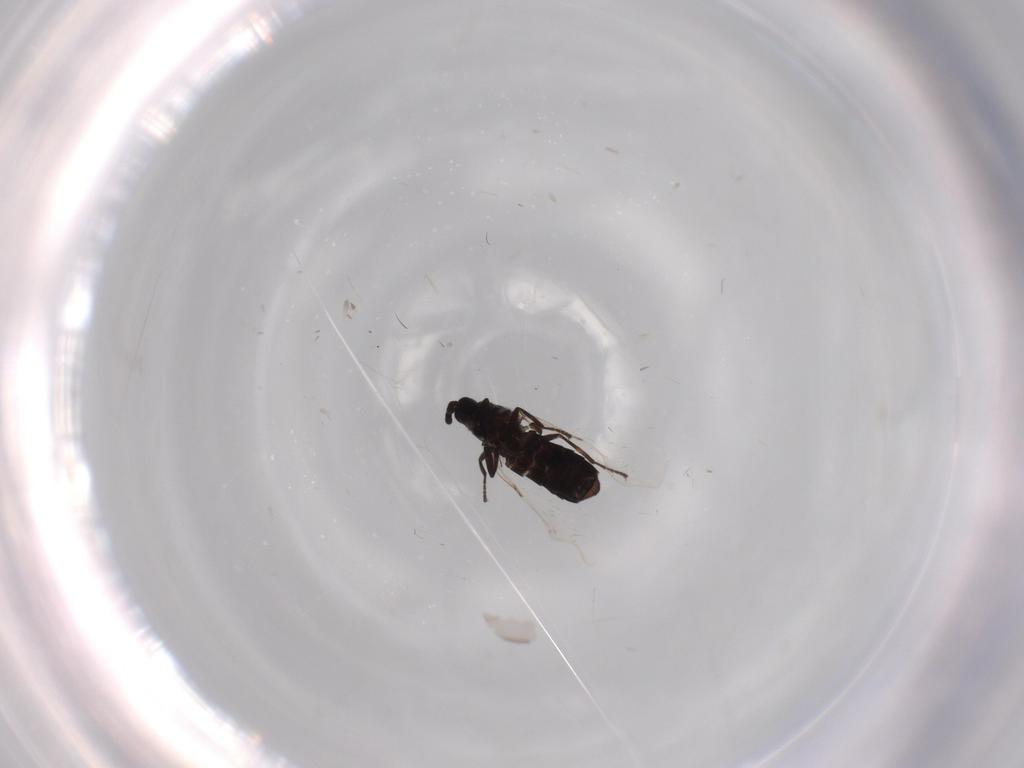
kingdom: Animalia
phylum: Arthropoda
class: Insecta
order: Diptera
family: Scatopsidae
